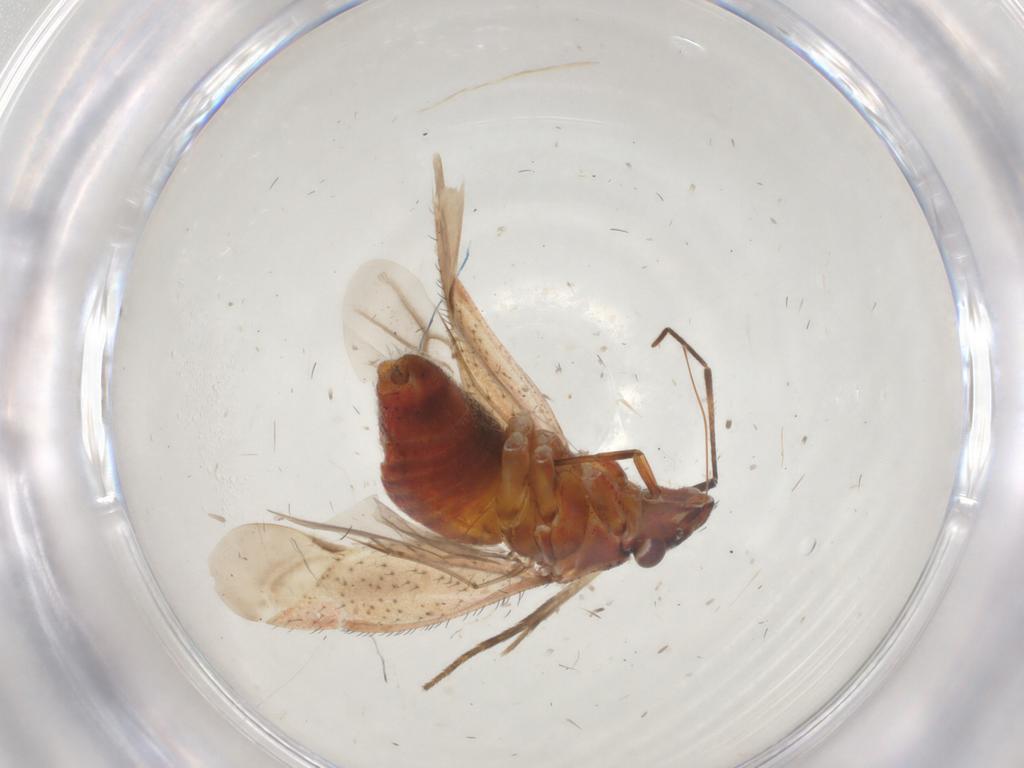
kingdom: Animalia
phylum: Arthropoda
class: Insecta
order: Hemiptera
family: Miridae
